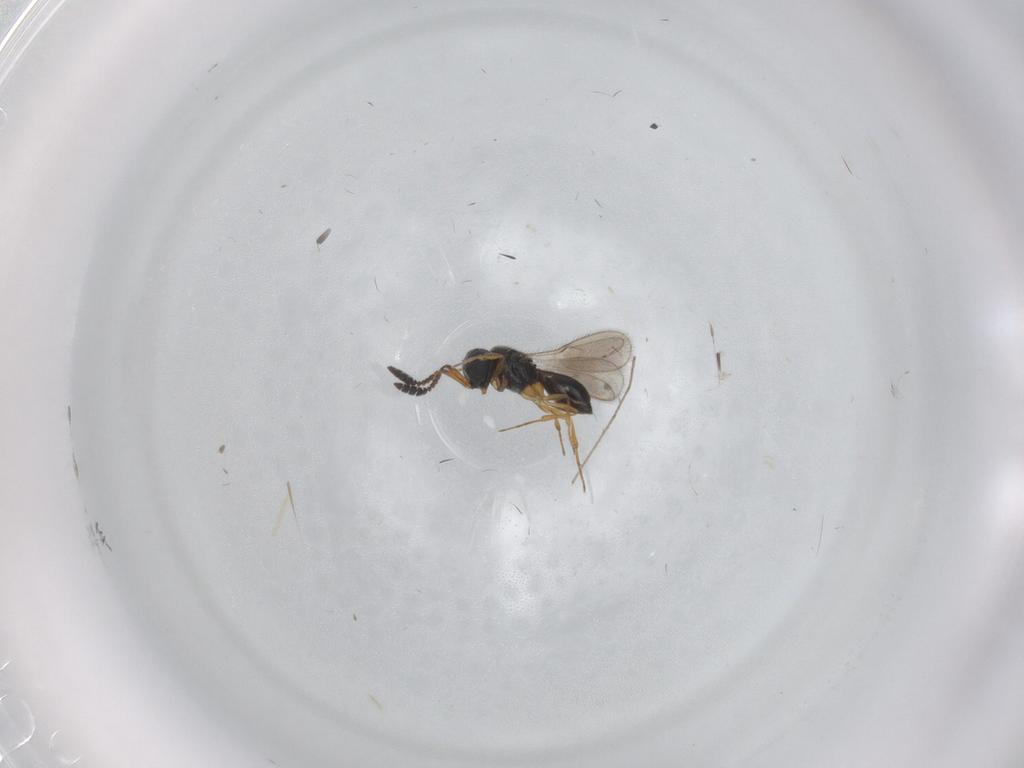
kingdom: Animalia
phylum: Arthropoda
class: Insecta
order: Hymenoptera
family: Scelionidae
